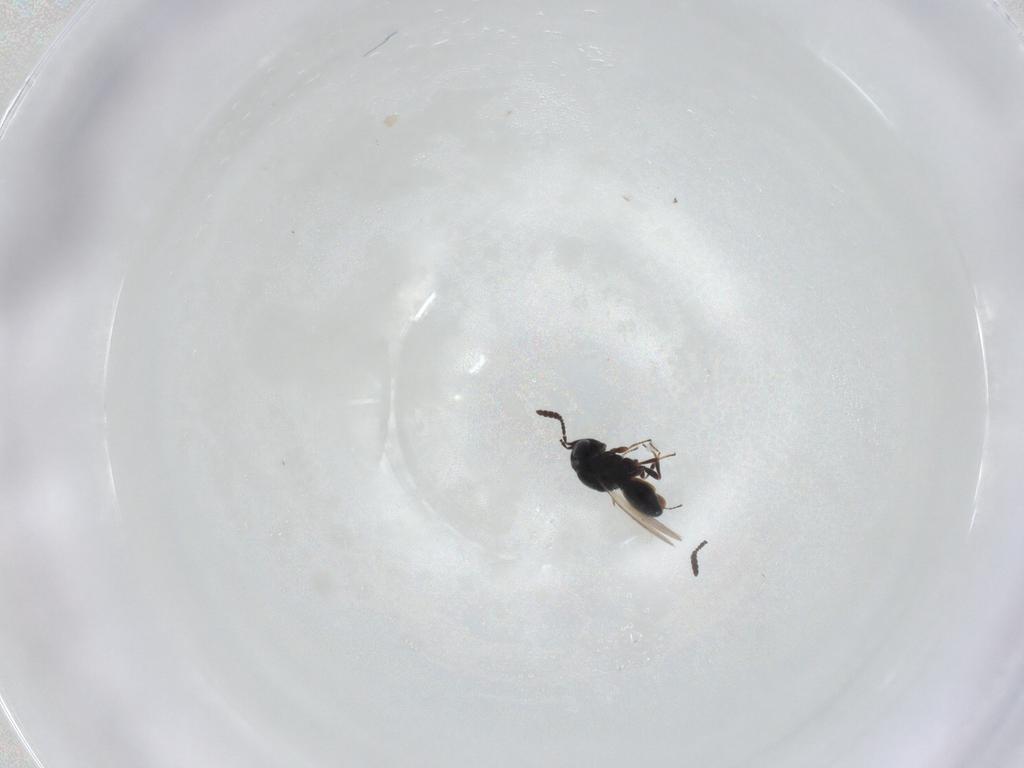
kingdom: Animalia
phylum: Arthropoda
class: Insecta
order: Hymenoptera
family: Scelionidae
